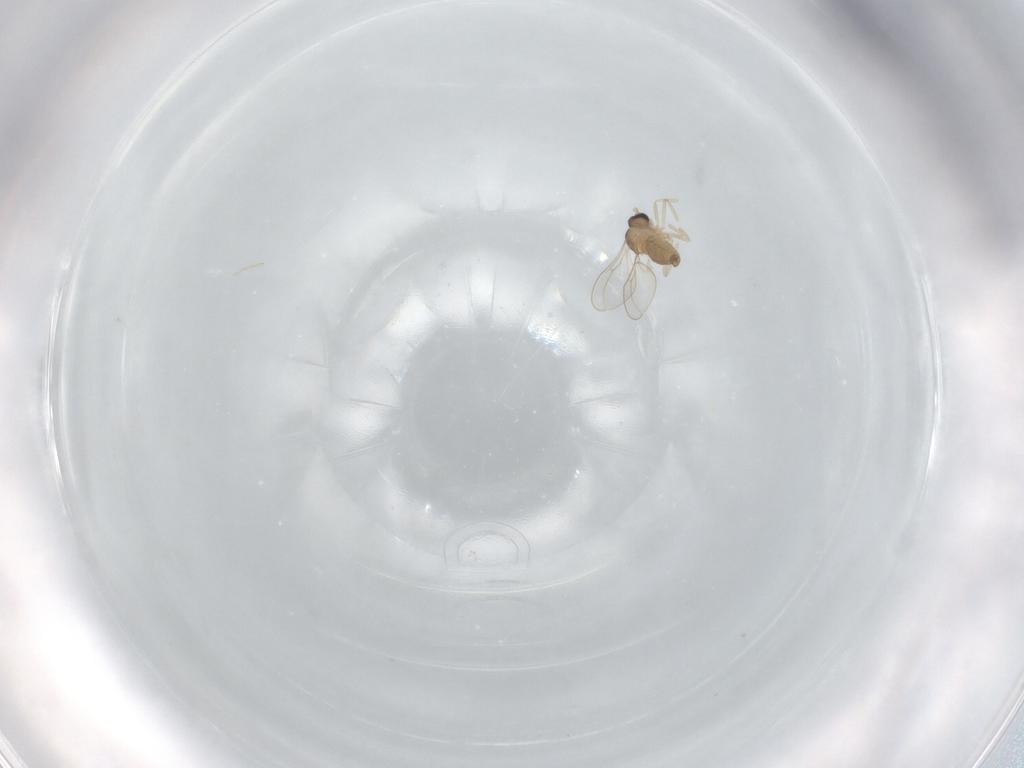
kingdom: Animalia
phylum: Arthropoda
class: Insecta
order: Diptera
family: Cecidomyiidae
